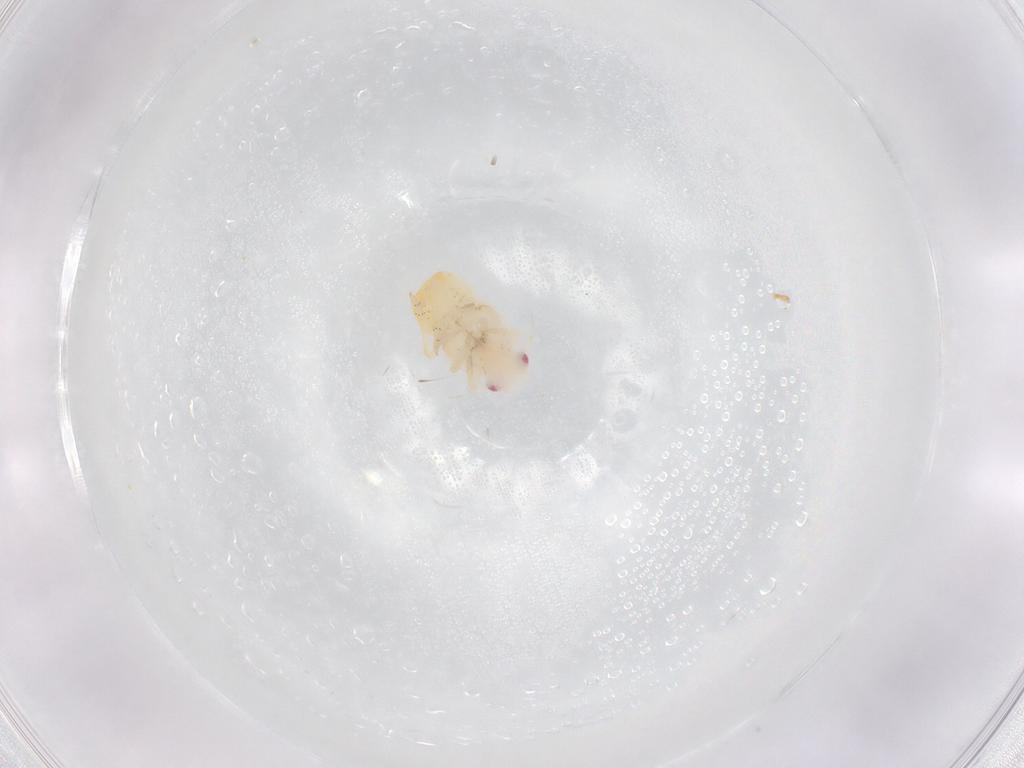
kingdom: Animalia
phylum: Arthropoda
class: Insecta
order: Hemiptera
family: Flatidae
